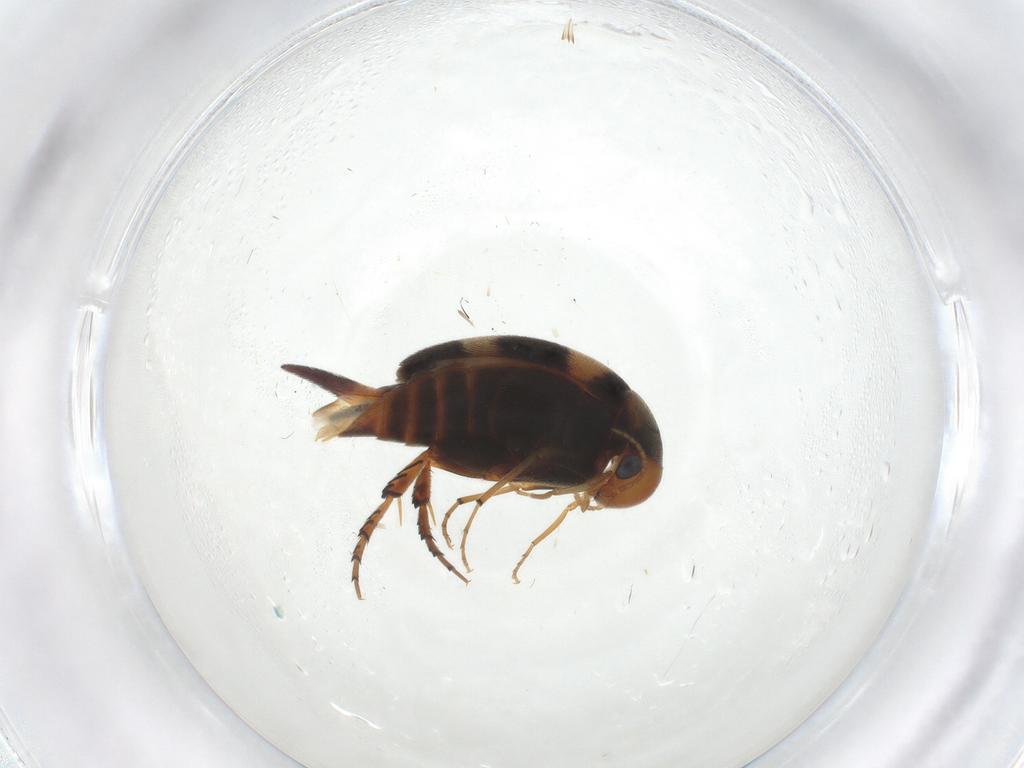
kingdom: Animalia
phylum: Arthropoda
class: Insecta
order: Coleoptera
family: Mordellidae
